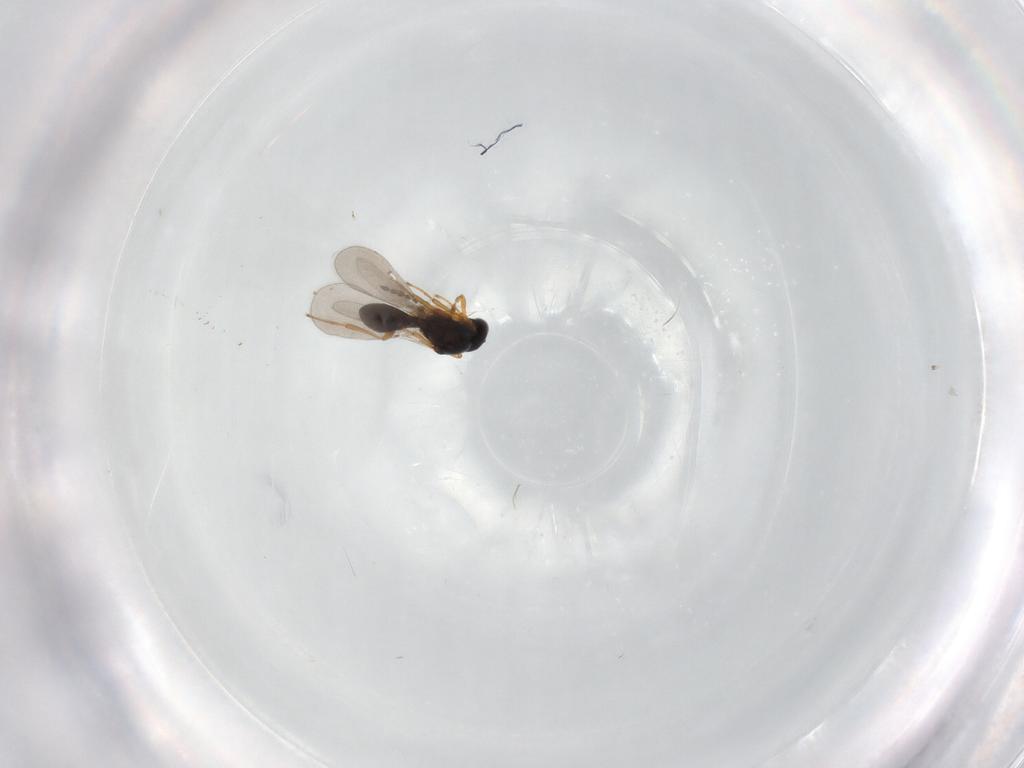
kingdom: Animalia
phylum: Arthropoda
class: Insecta
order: Hymenoptera
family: Platygastridae
